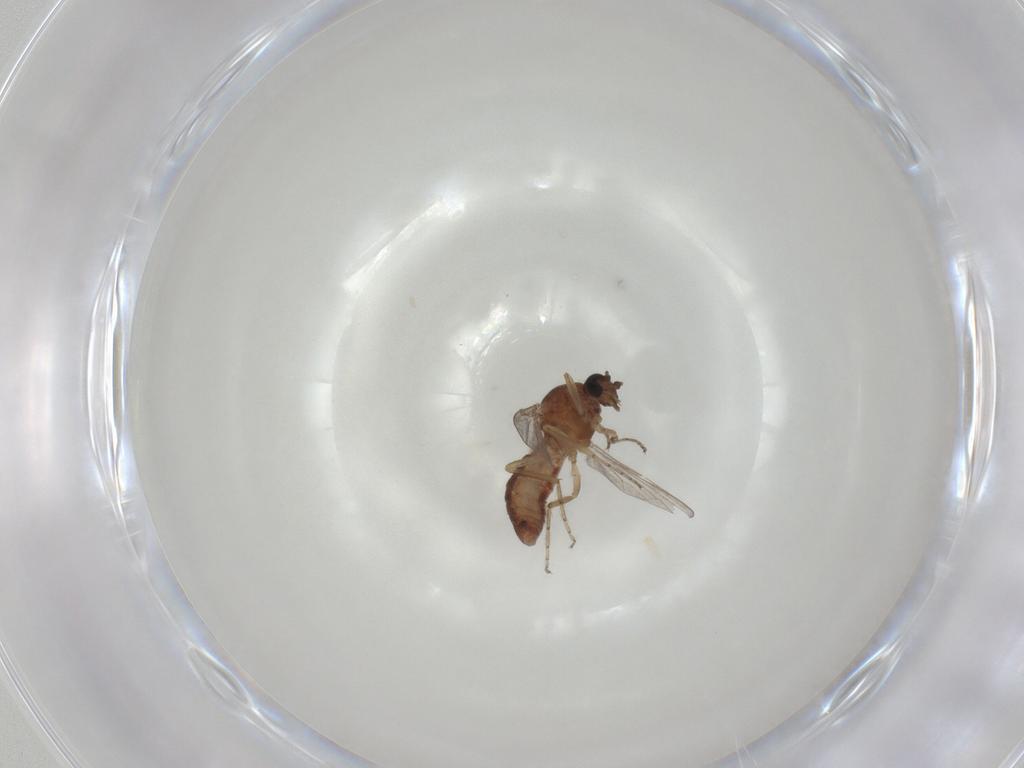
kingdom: Animalia
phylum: Arthropoda
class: Insecta
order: Diptera
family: Ceratopogonidae
